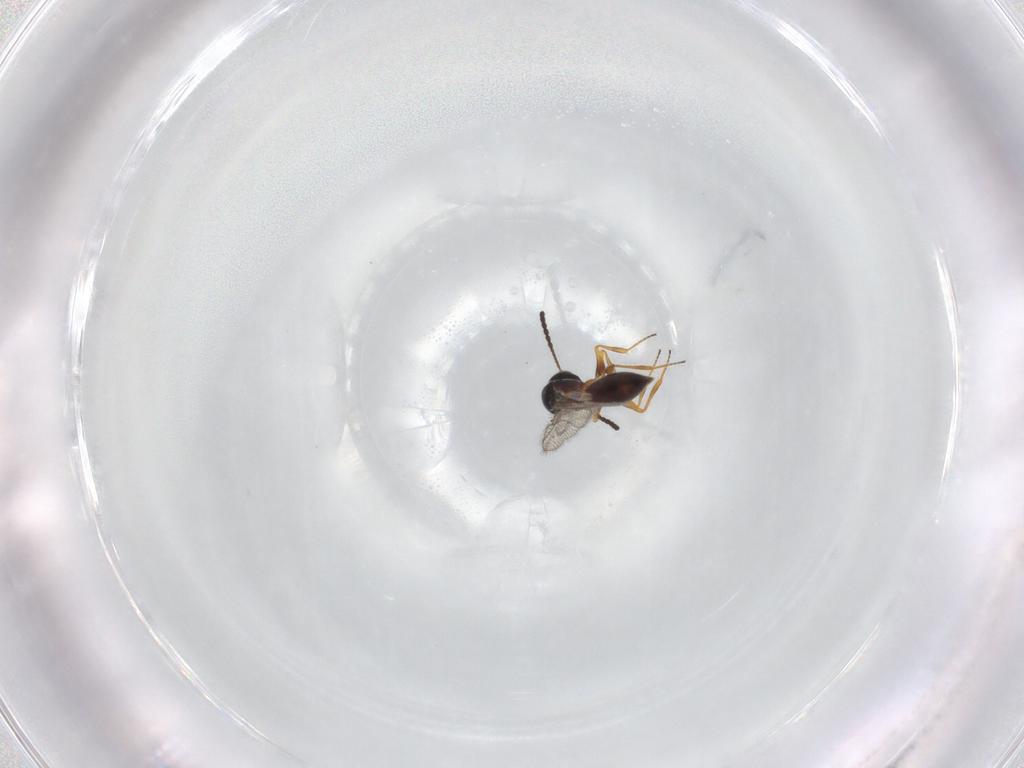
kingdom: Animalia
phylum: Arthropoda
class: Insecta
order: Hymenoptera
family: Figitidae
